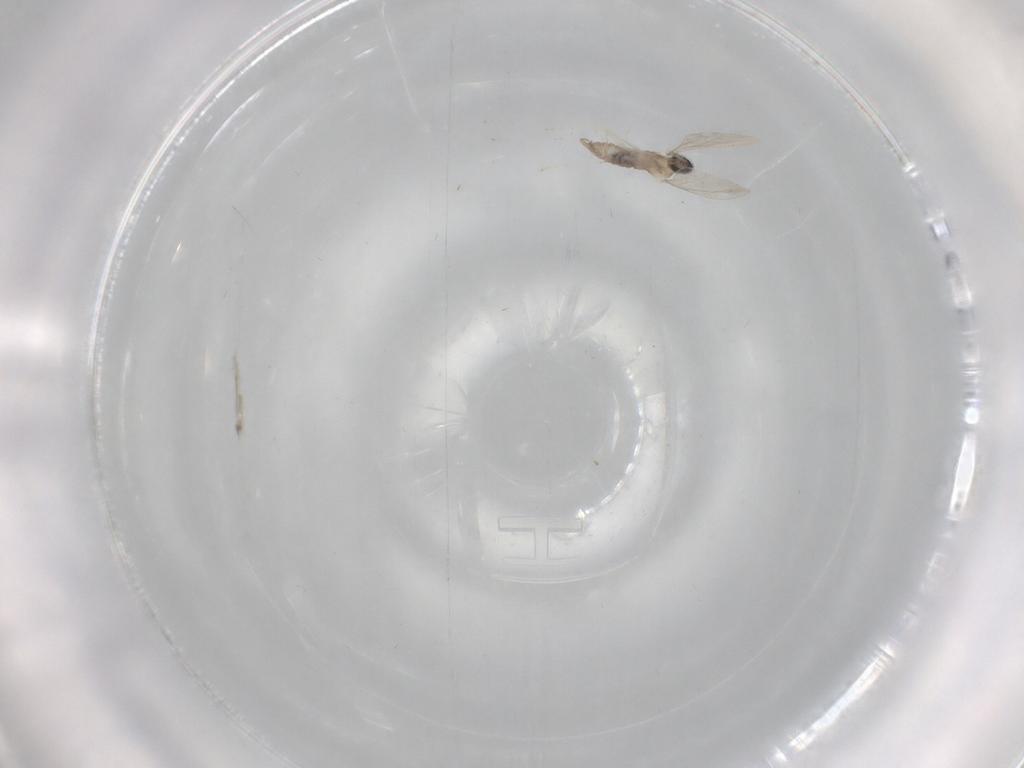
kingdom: Animalia
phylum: Arthropoda
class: Insecta
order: Diptera
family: Cecidomyiidae
